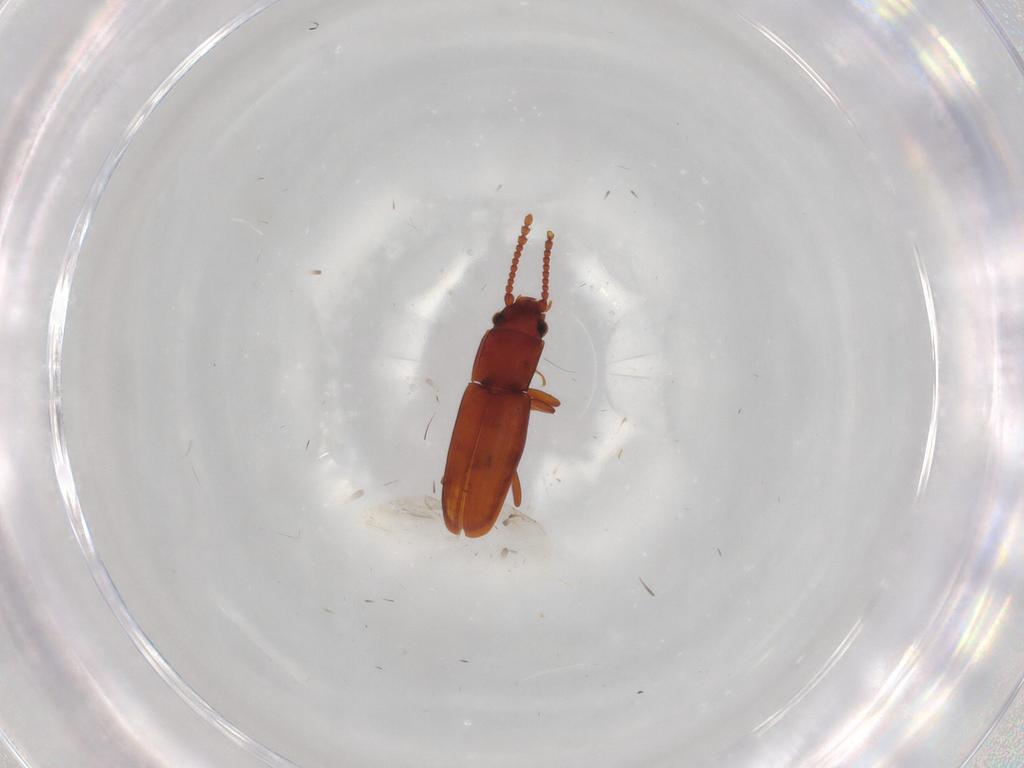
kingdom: Animalia
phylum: Arthropoda
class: Insecta
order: Coleoptera
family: Laemophloeidae
